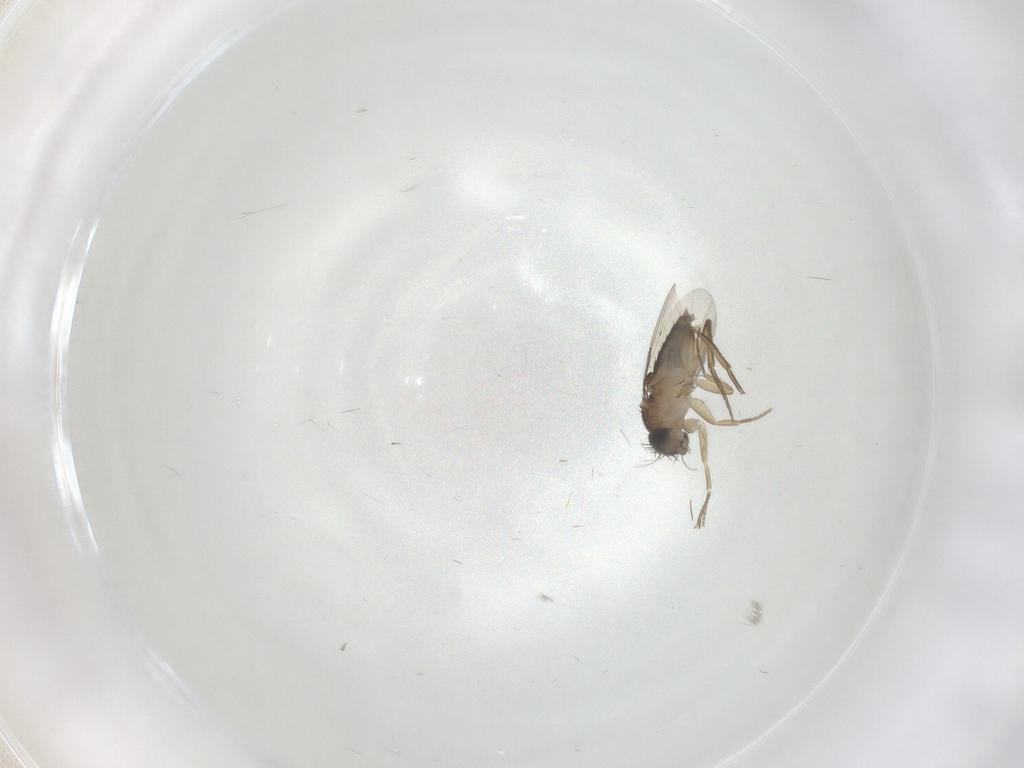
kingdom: Animalia
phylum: Arthropoda
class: Insecta
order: Diptera
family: Phoridae
